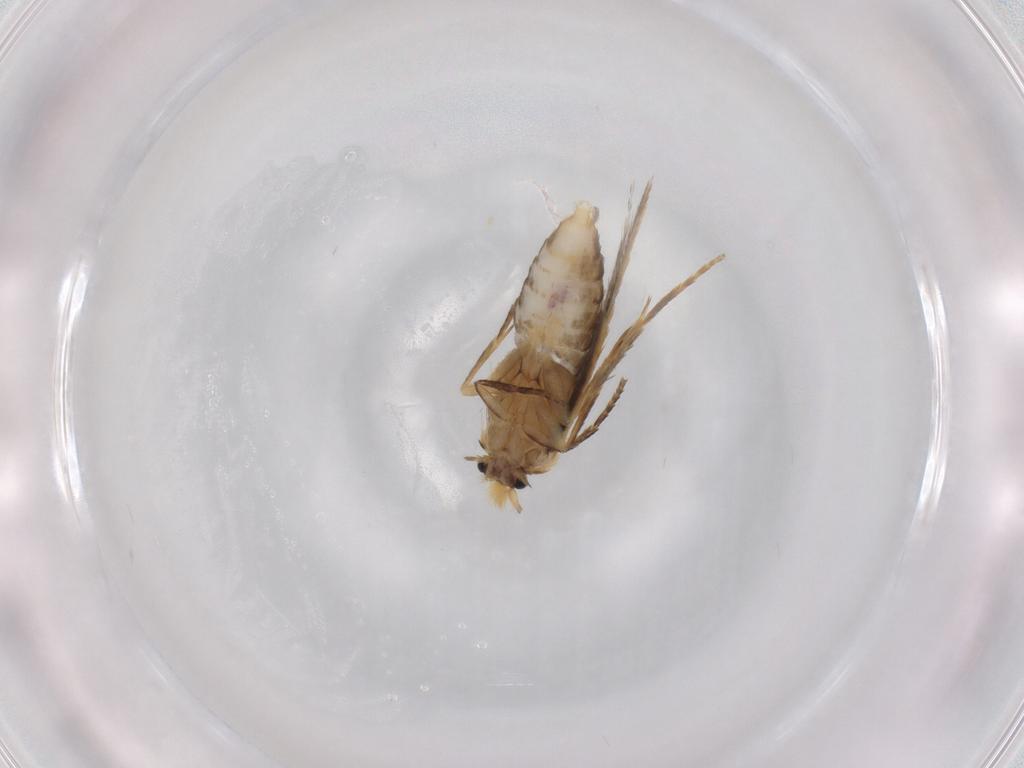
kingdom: Animalia
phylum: Arthropoda
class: Insecta
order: Lepidoptera
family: Nepticulidae
